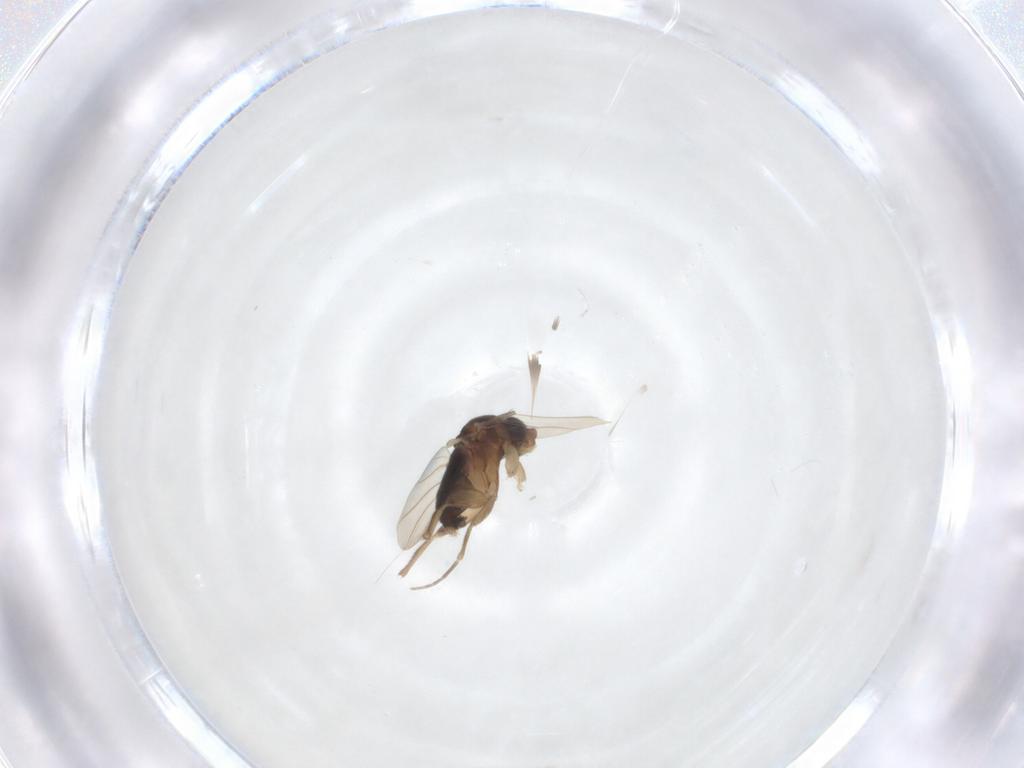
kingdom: Animalia
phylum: Arthropoda
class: Insecta
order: Diptera
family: Phoridae
